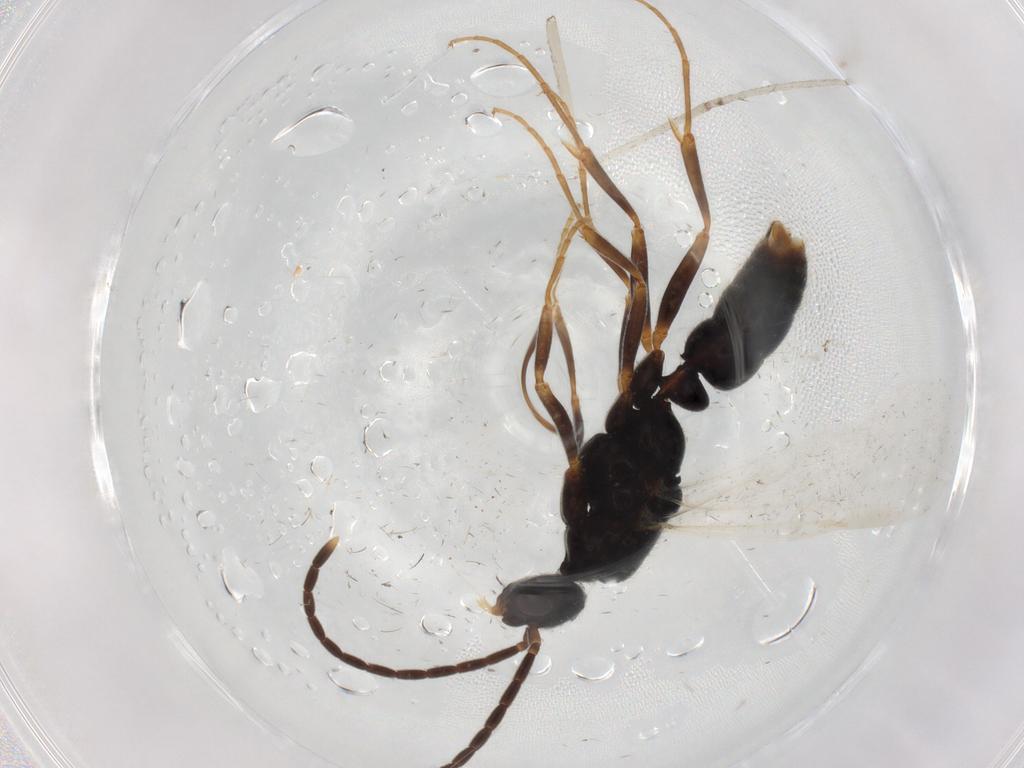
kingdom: Animalia
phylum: Arthropoda
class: Insecta
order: Hymenoptera
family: Formicidae
